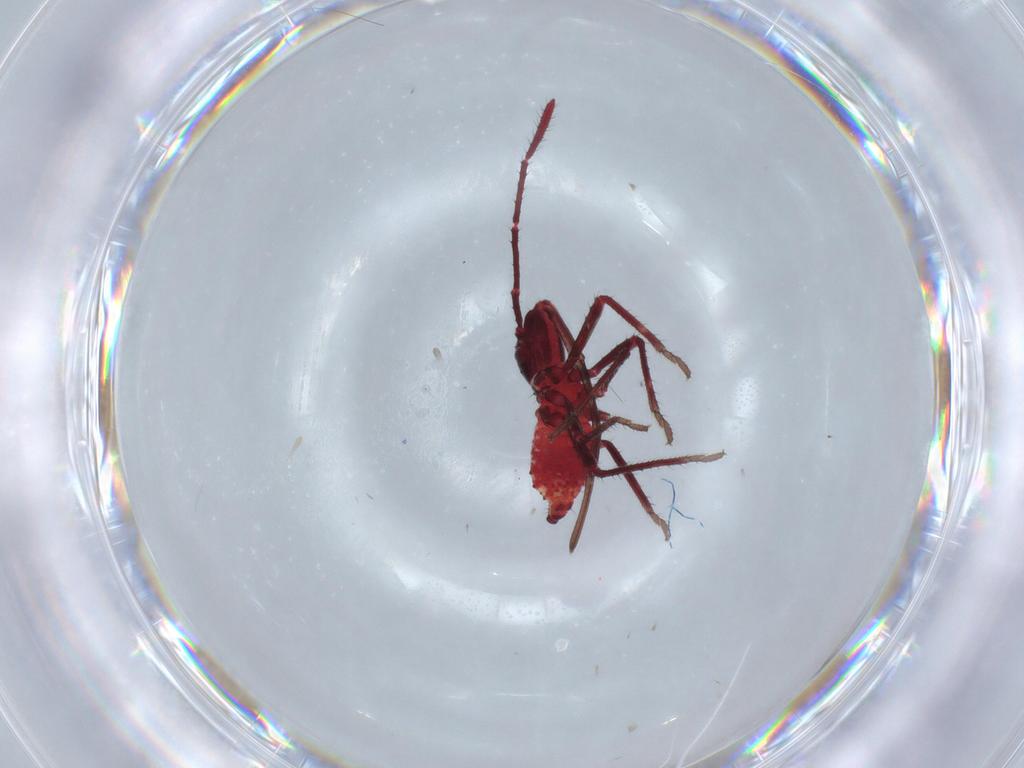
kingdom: Animalia
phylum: Arthropoda
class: Insecta
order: Hemiptera
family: Coreidae
